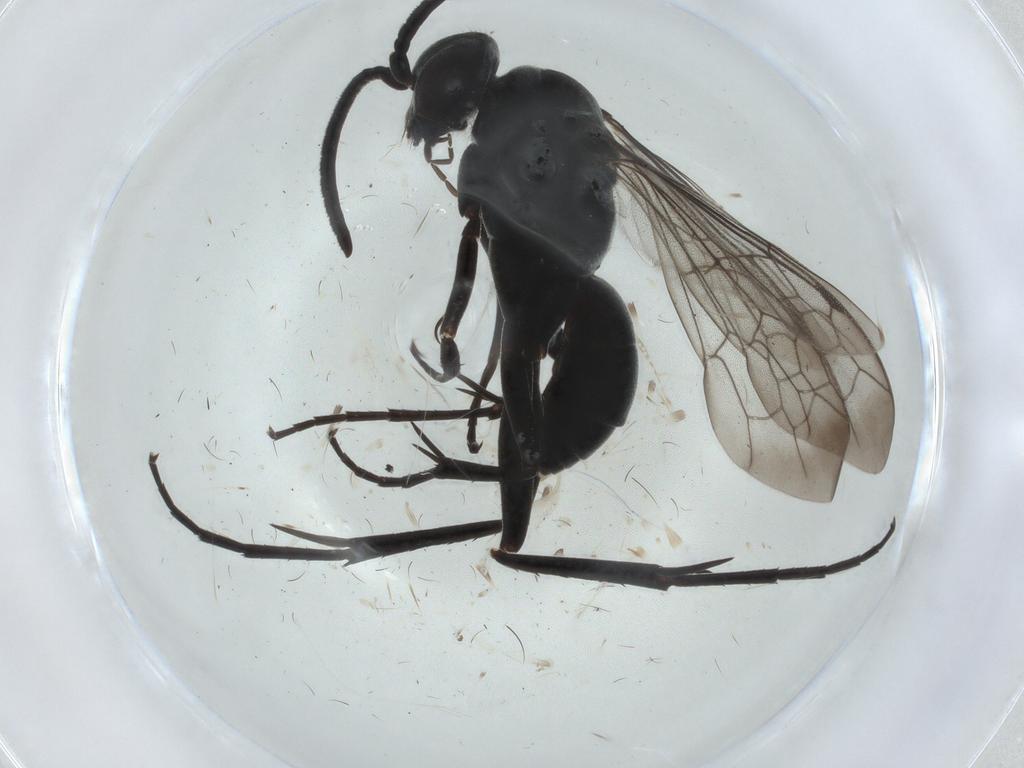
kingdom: Animalia
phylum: Arthropoda
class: Insecta
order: Hymenoptera
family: Pompilidae
